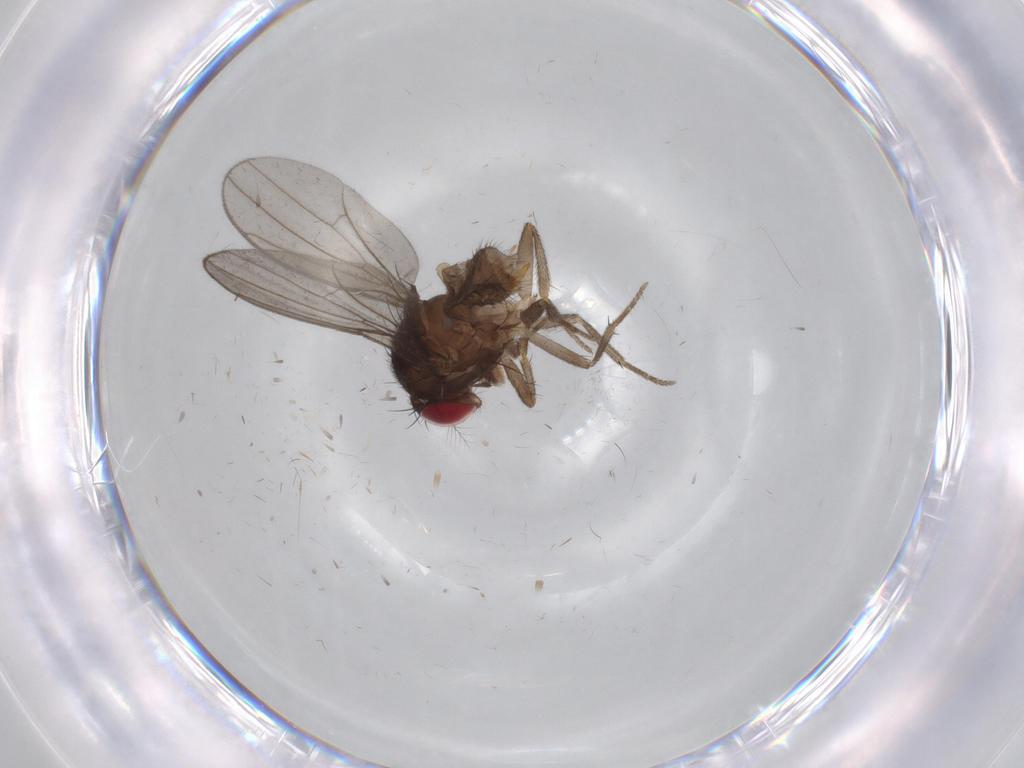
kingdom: Animalia
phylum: Arthropoda
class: Insecta
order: Diptera
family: Drosophilidae
